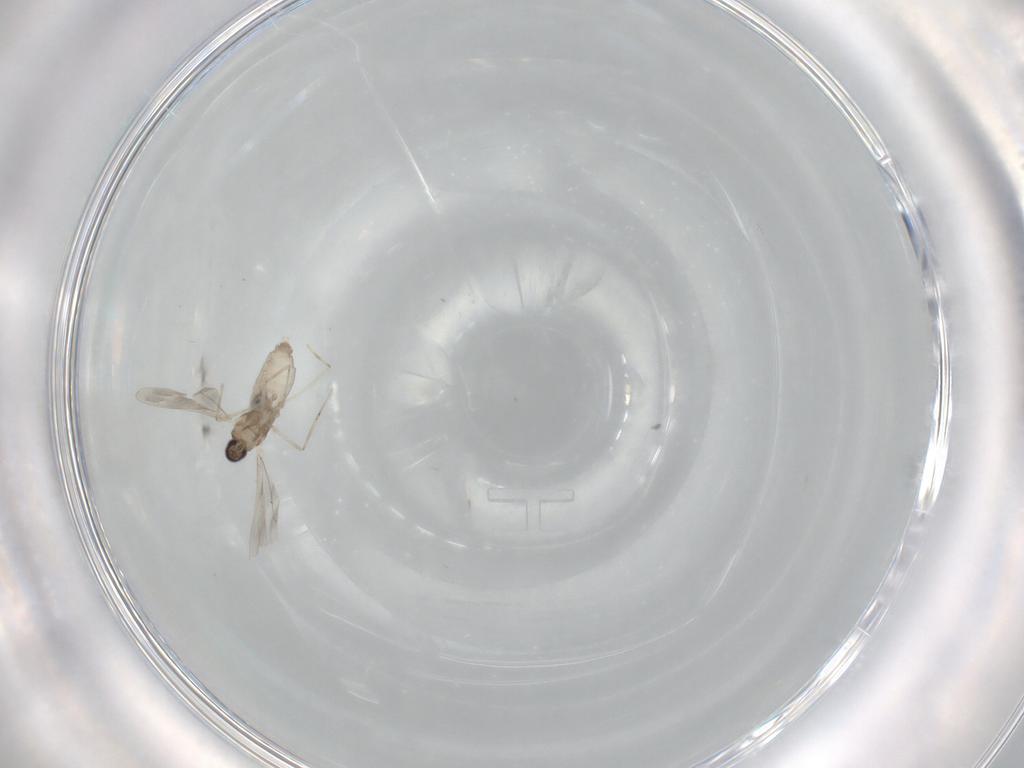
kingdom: Animalia
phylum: Arthropoda
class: Insecta
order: Diptera
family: Cecidomyiidae
